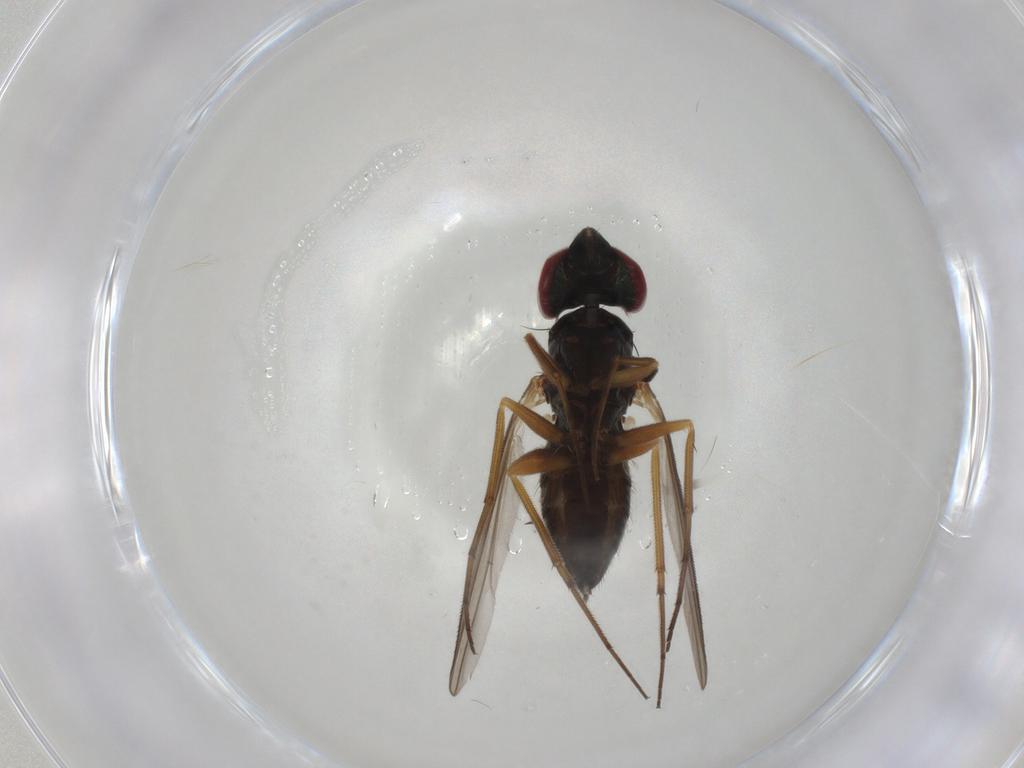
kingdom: Animalia
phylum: Arthropoda
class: Insecta
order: Diptera
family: Dolichopodidae
